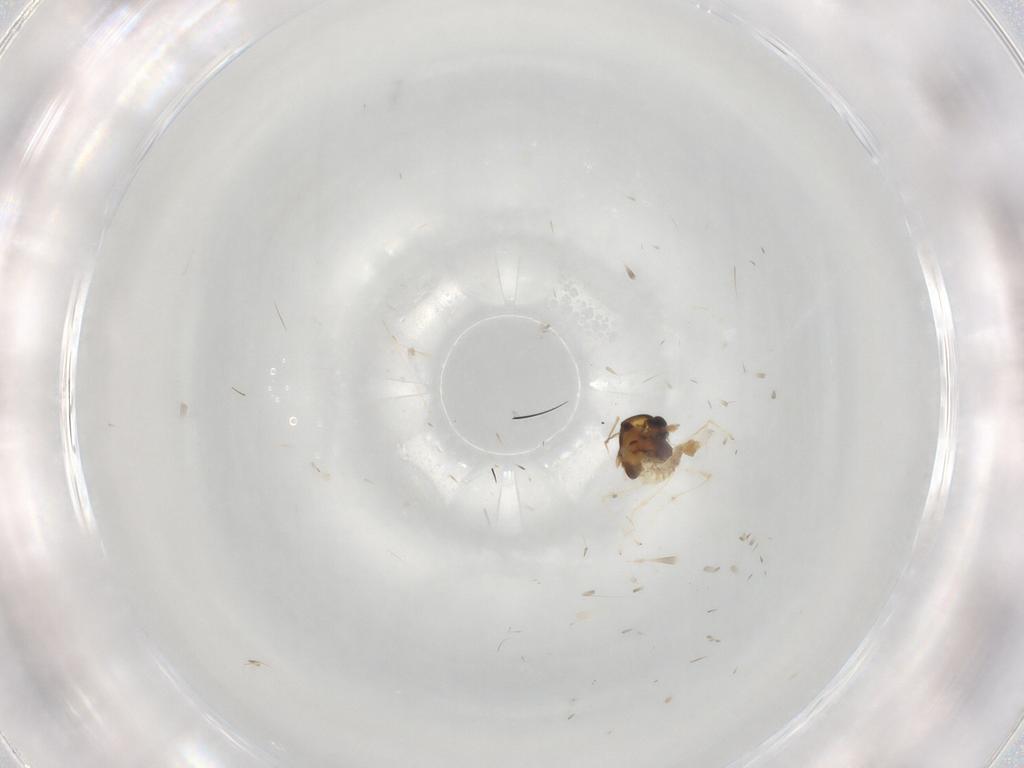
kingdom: Animalia
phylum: Arthropoda
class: Insecta
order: Diptera
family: Chironomidae
